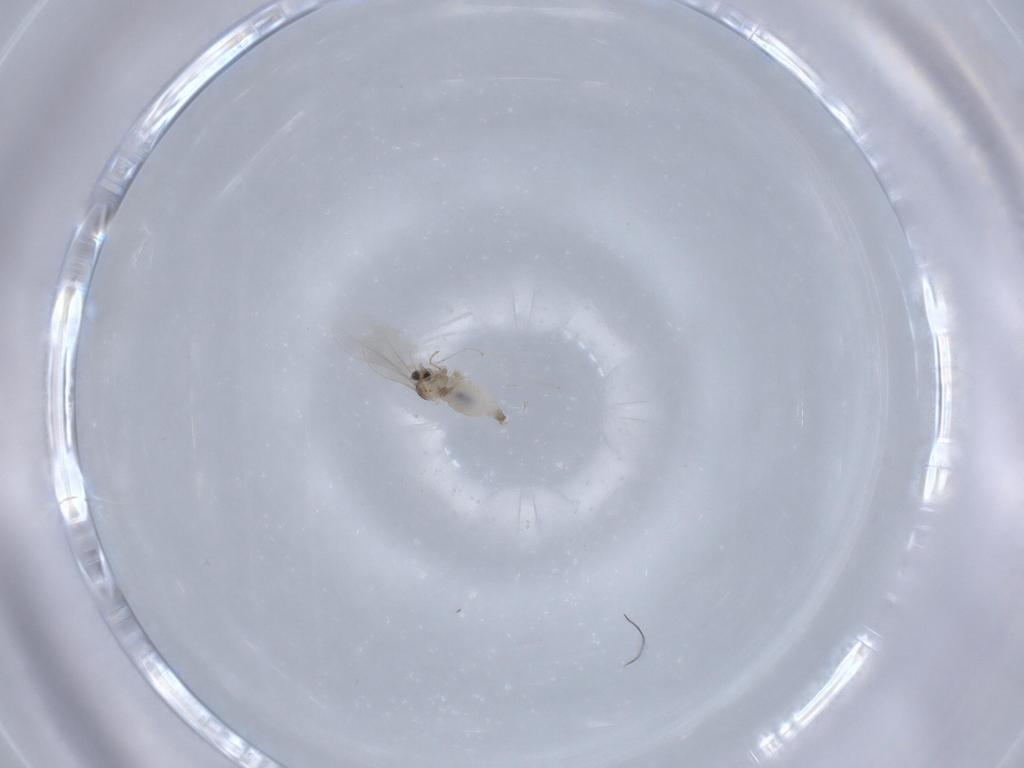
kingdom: Animalia
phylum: Arthropoda
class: Insecta
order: Diptera
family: Cecidomyiidae
